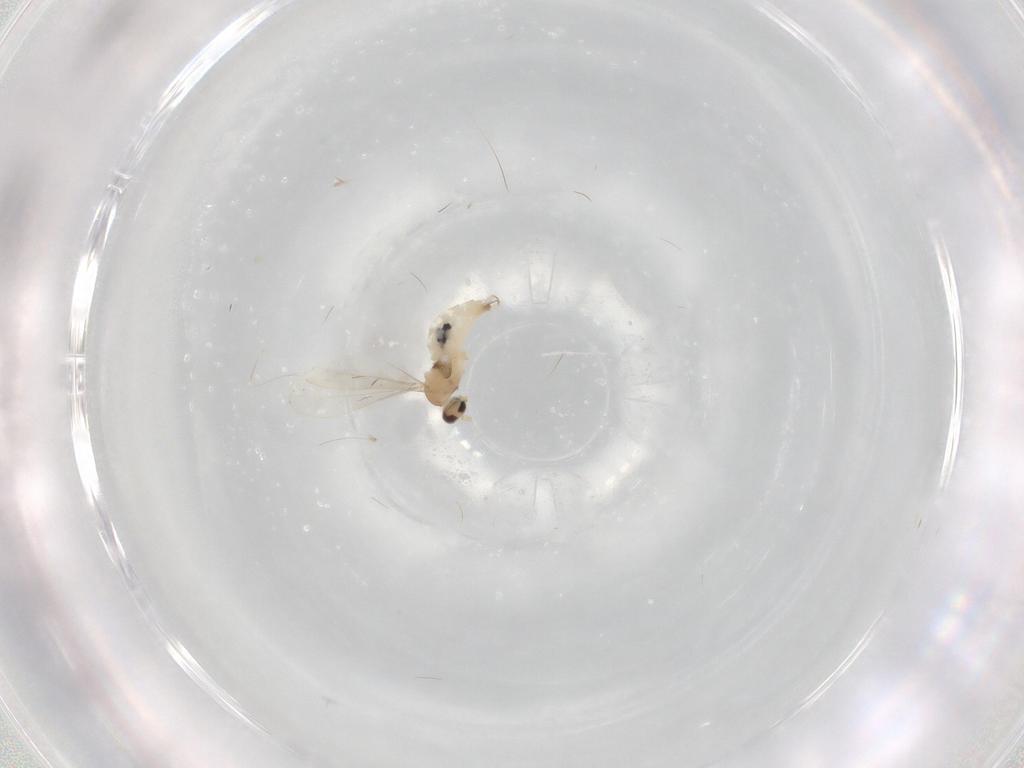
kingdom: Animalia
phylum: Arthropoda
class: Insecta
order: Diptera
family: Cecidomyiidae
